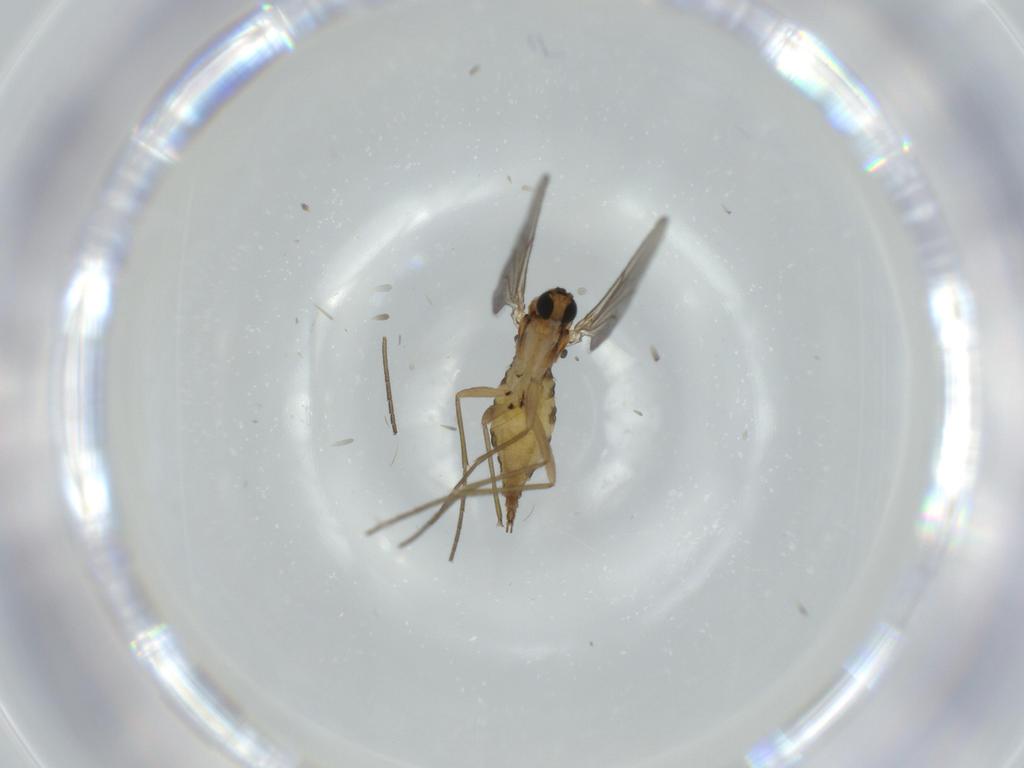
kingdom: Animalia
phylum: Arthropoda
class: Insecta
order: Diptera
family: Sciaridae
